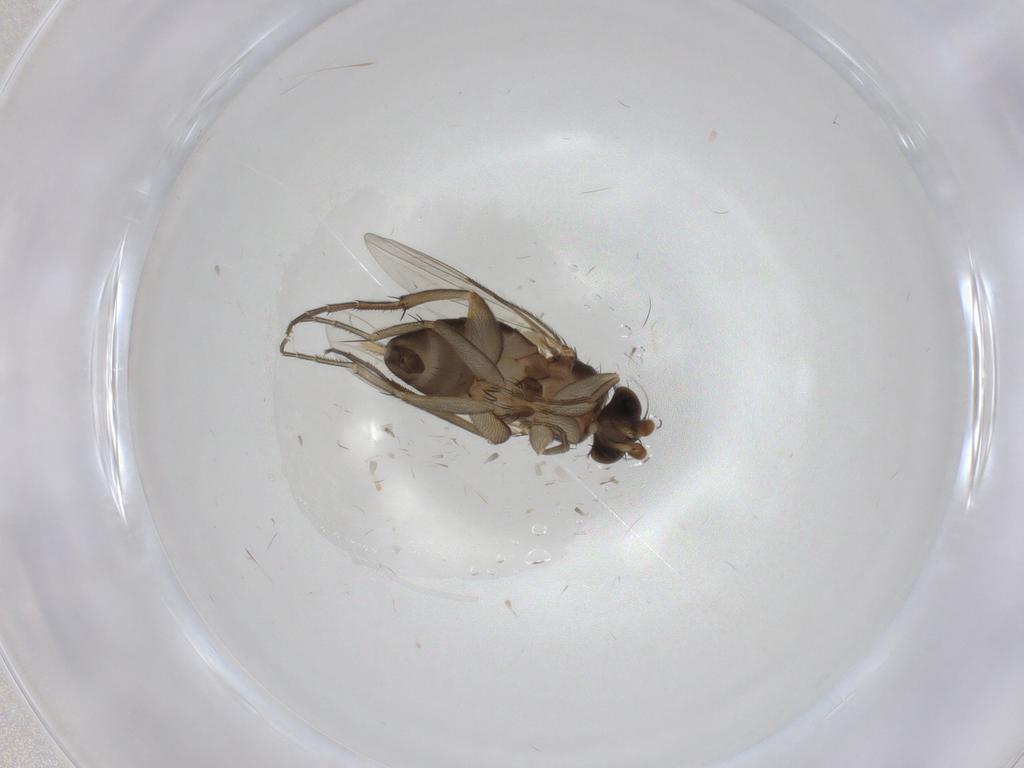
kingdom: Animalia
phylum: Arthropoda
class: Insecta
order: Diptera
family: Phoridae
